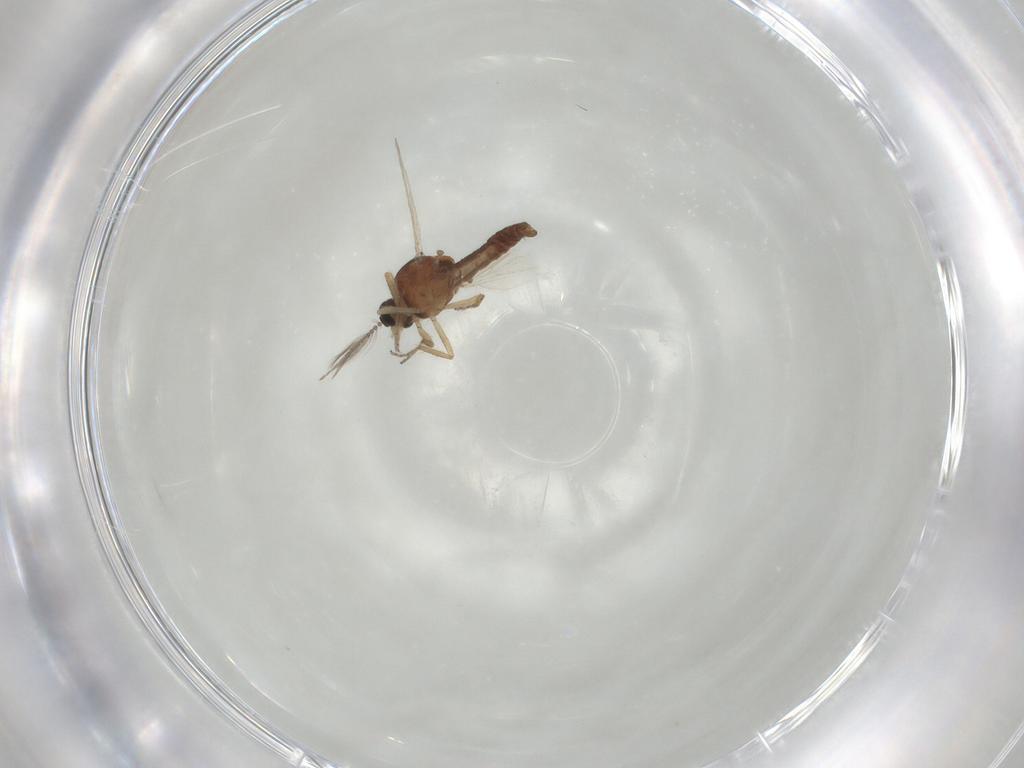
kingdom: Animalia
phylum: Arthropoda
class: Insecta
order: Diptera
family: Ceratopogonidae
